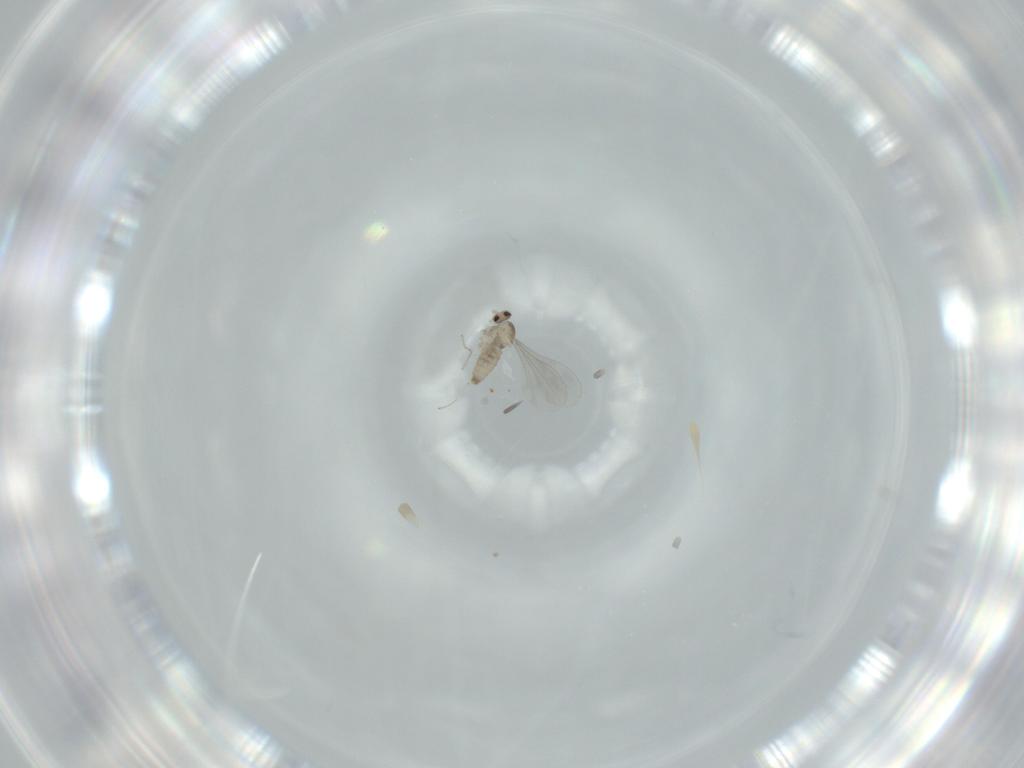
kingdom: Animalia
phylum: Arthropoda
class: Insecta
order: Diptera
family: Cecidomyiidae
